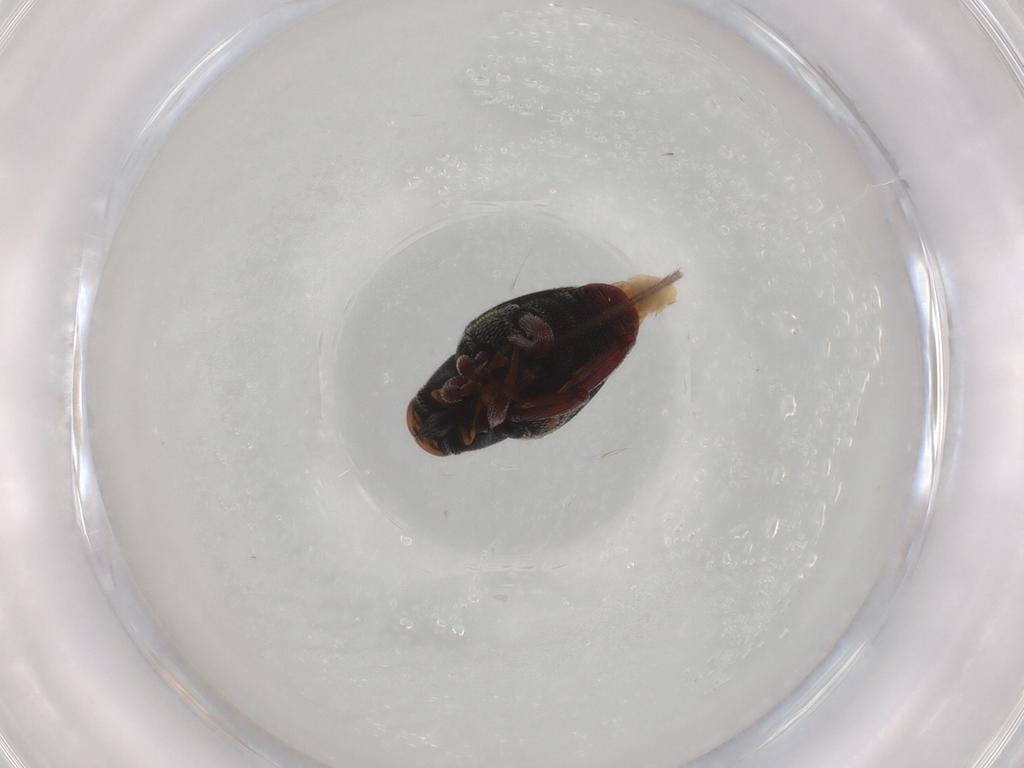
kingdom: Animalia
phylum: Arthropoda
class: Insecta
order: Coleoptera
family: Curculionidae
